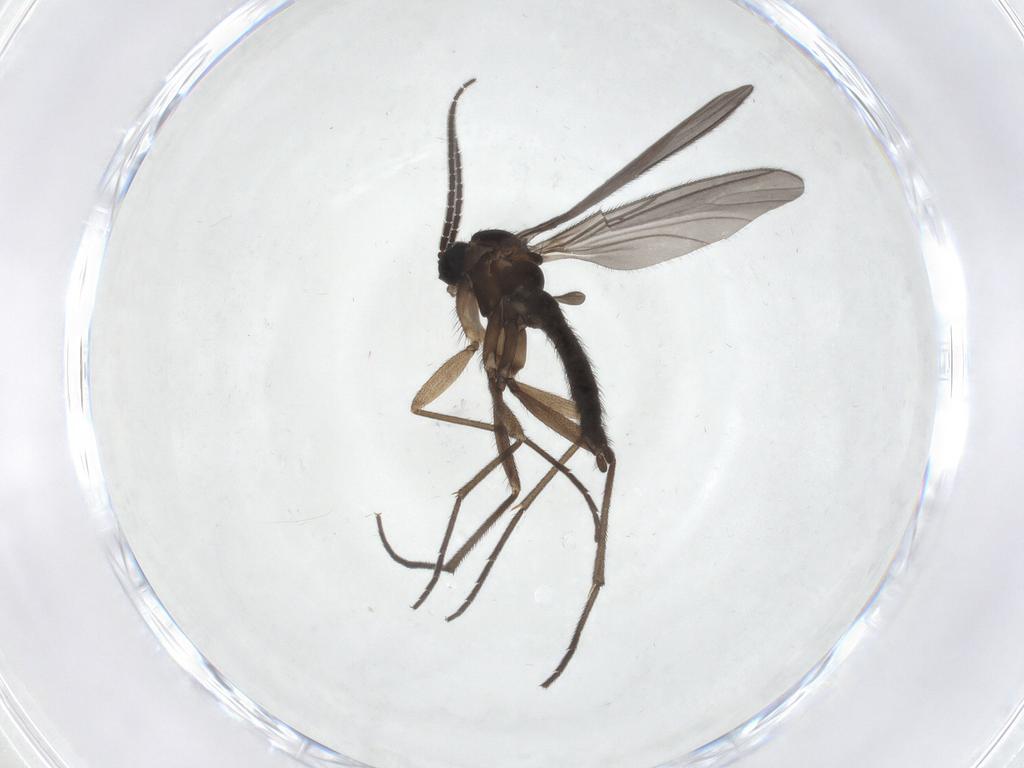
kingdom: Animalia
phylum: Arthropoda
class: Insecta
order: Diptera
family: Sciaridae
